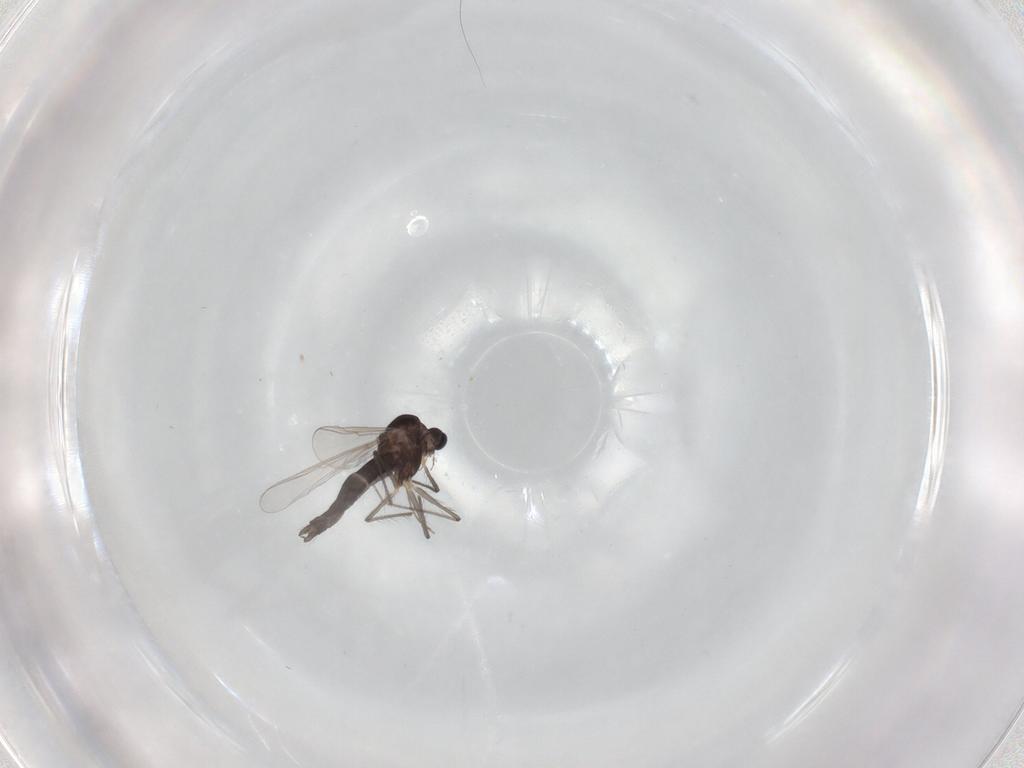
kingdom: Animalia
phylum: Arthropoda
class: Insecta
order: Diptera
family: Chironomidae
